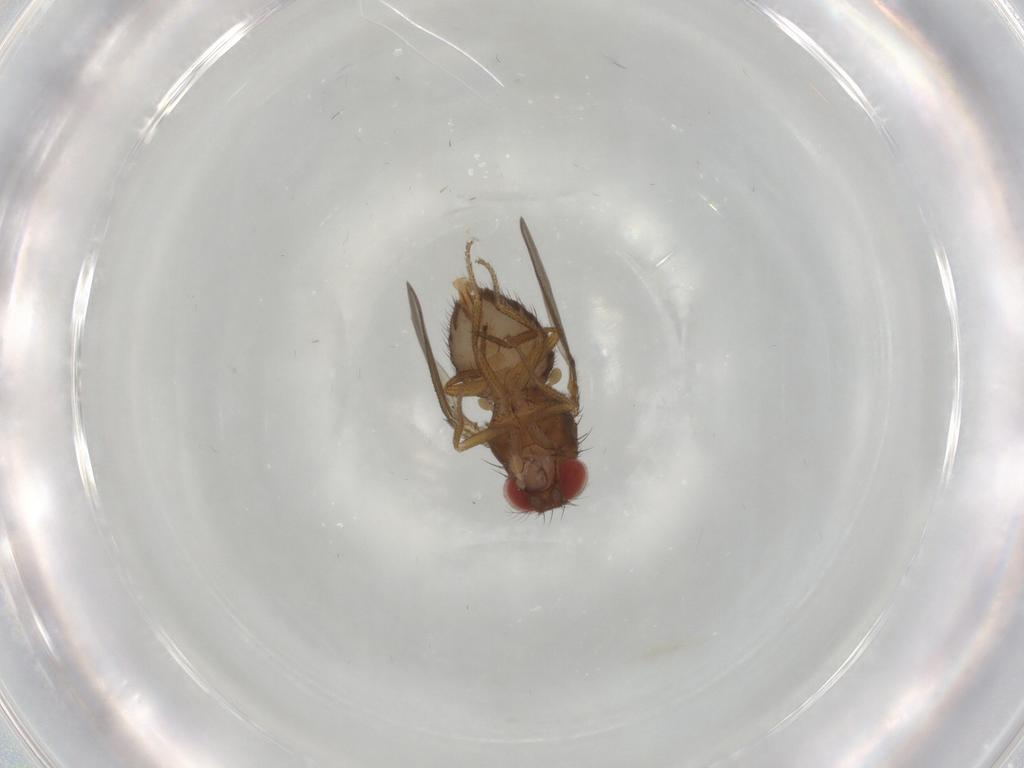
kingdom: Animalia
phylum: Arthropoda
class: Insecta
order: Diptera
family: Drosophilidae
